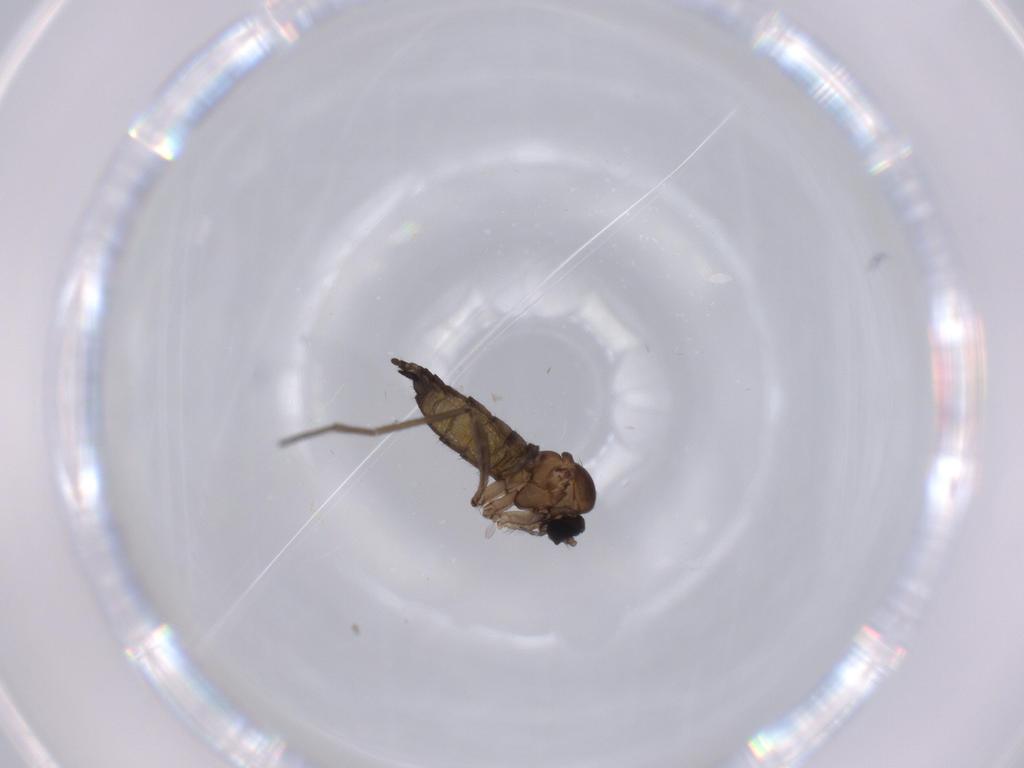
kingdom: Animalia
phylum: Arthropoda
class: Insecta
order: Diptera
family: Sciaridae
